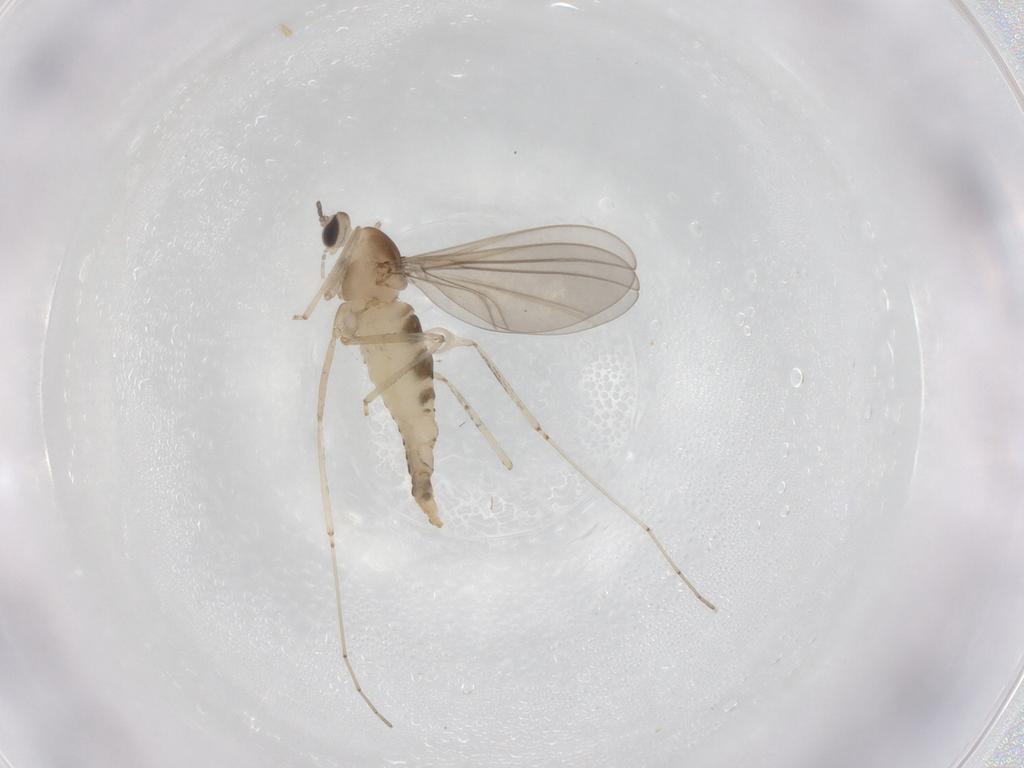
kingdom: Animalia
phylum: Arthropoda
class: Insecta
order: Diptera
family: Cecidomyiidae
